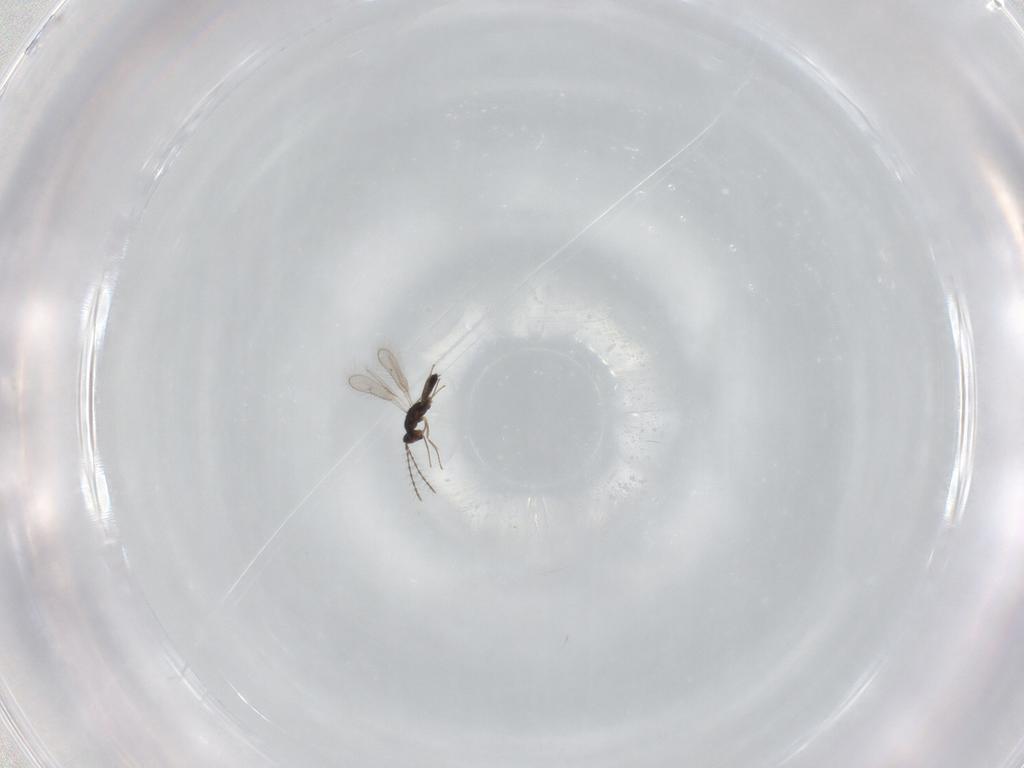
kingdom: Animalia
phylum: Arthropoda
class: Insecta
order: Hymenoptera
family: Pteromalidae
